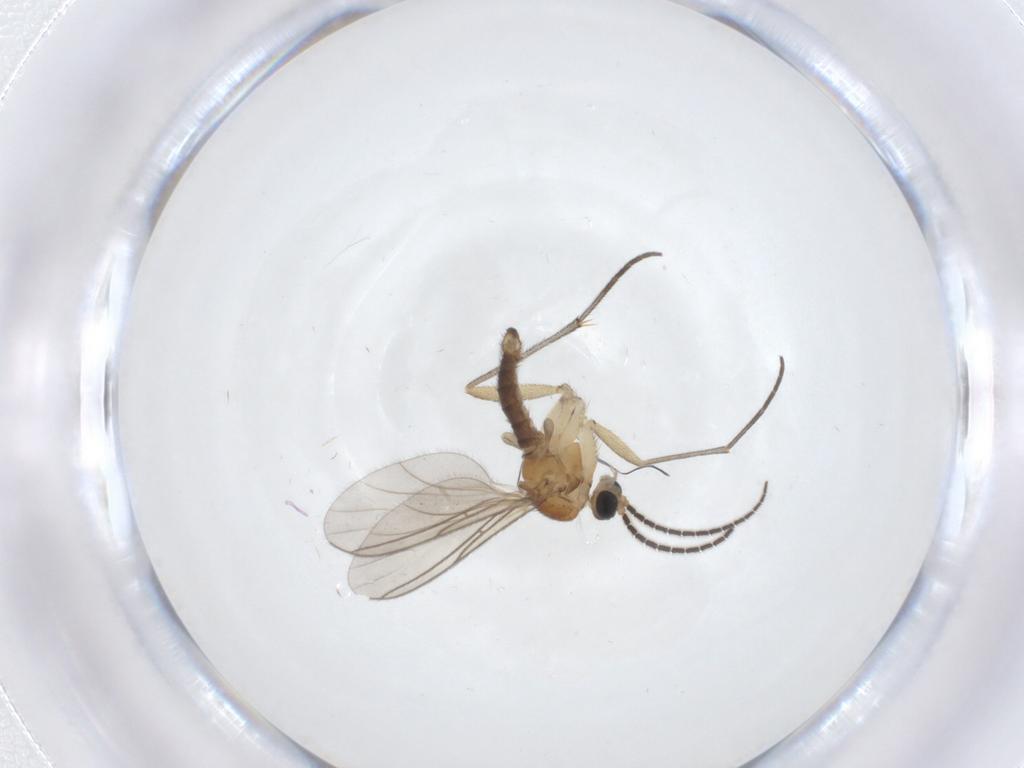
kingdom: Animalia
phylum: Arthropoda
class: Insecta
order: Diptera
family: Sciaridae
